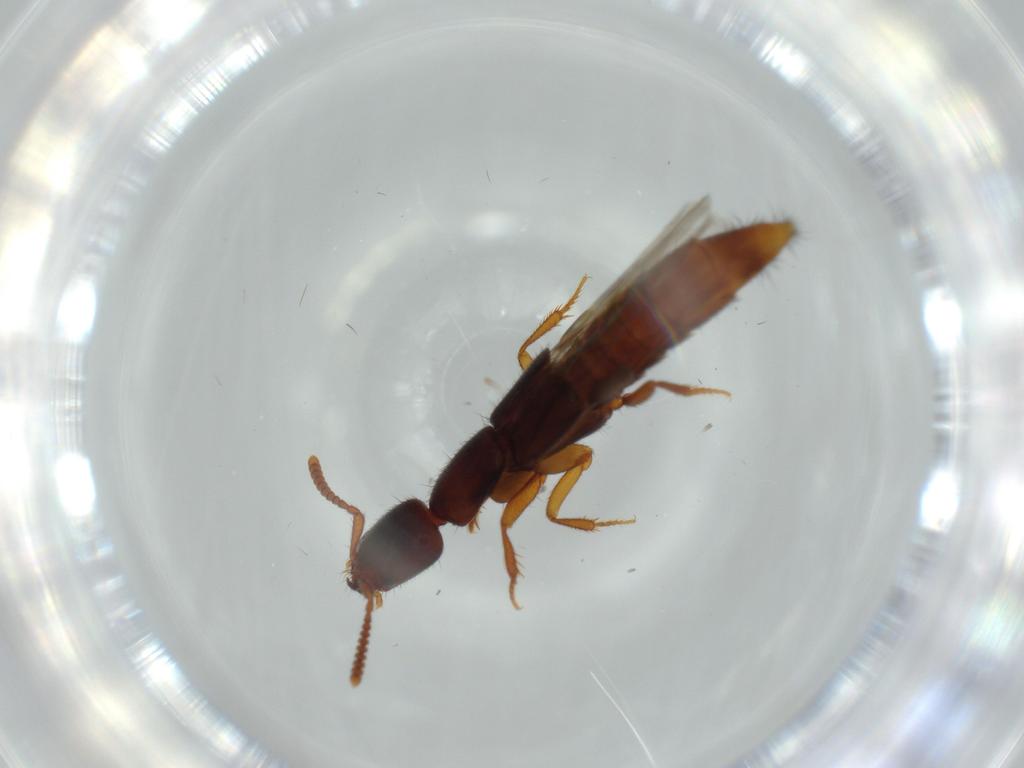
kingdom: Animalia
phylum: Arthropoda
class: Insecta
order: Coleoptera
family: Staphylinidae
